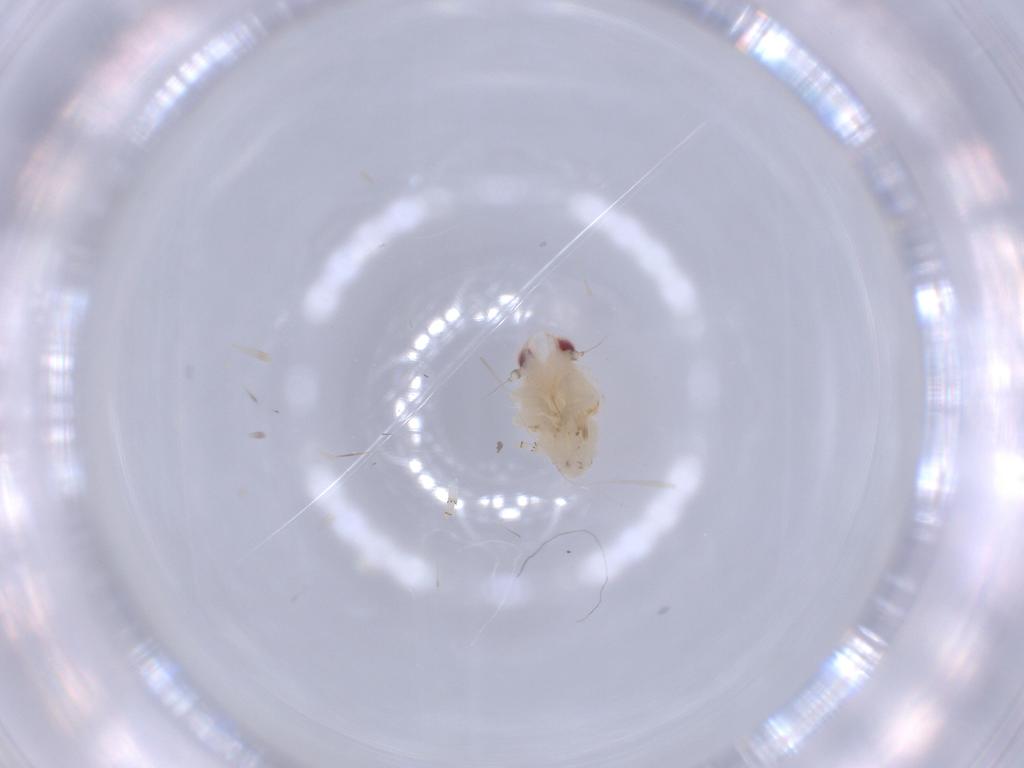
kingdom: Animalia
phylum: Arthropoda
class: Insecta
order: Hemiptera
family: Nogodinidae
